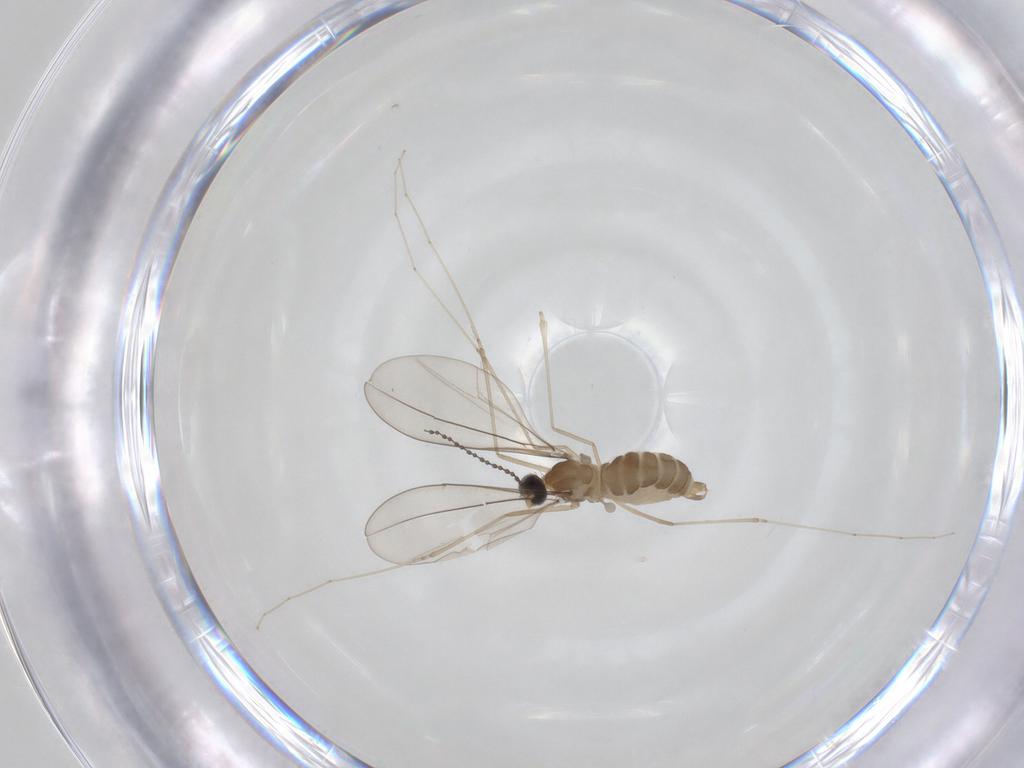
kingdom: Animalia
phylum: Arthropoda
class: Insecta
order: Diptera
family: Cecidomyiidae
